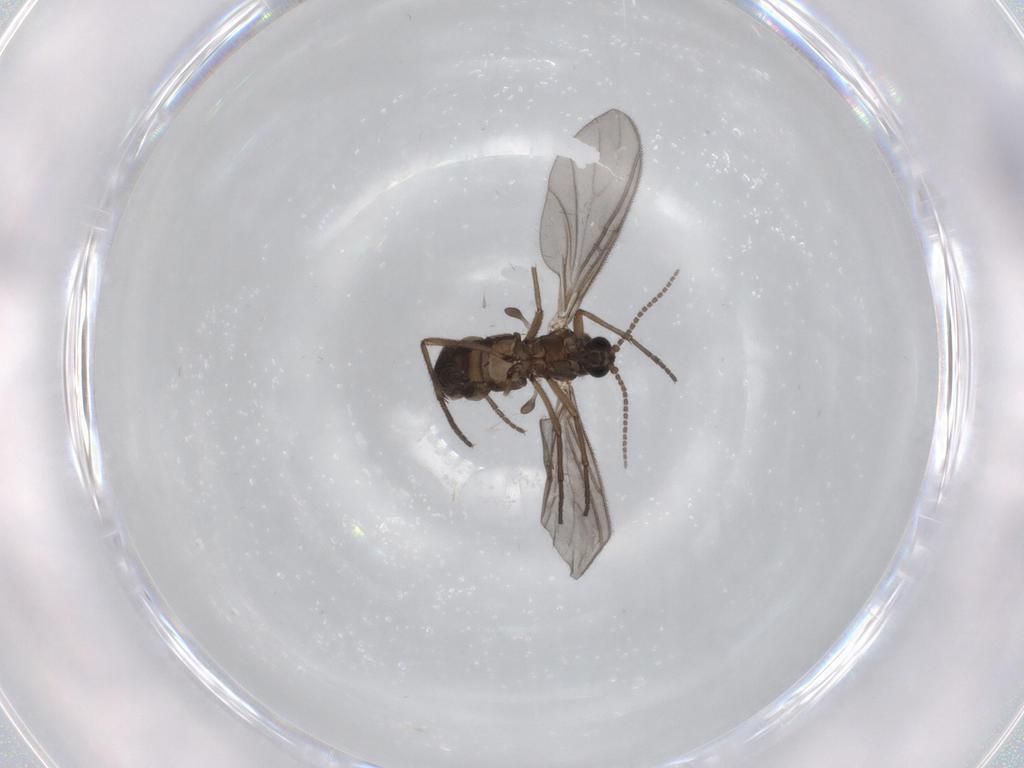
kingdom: Animalia
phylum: Arthropoda
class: Insecta
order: Diptera
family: Sciaridae
